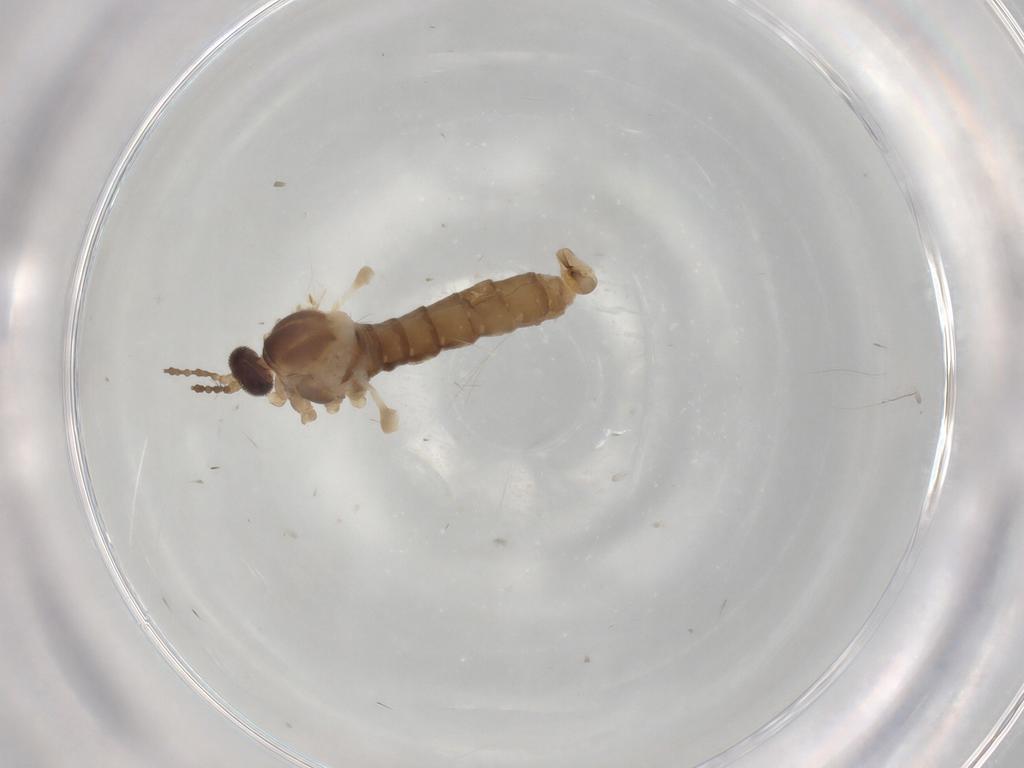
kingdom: Animalia
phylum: Arthropoda
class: Insecta
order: Diptera
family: Cecidomyiidae
